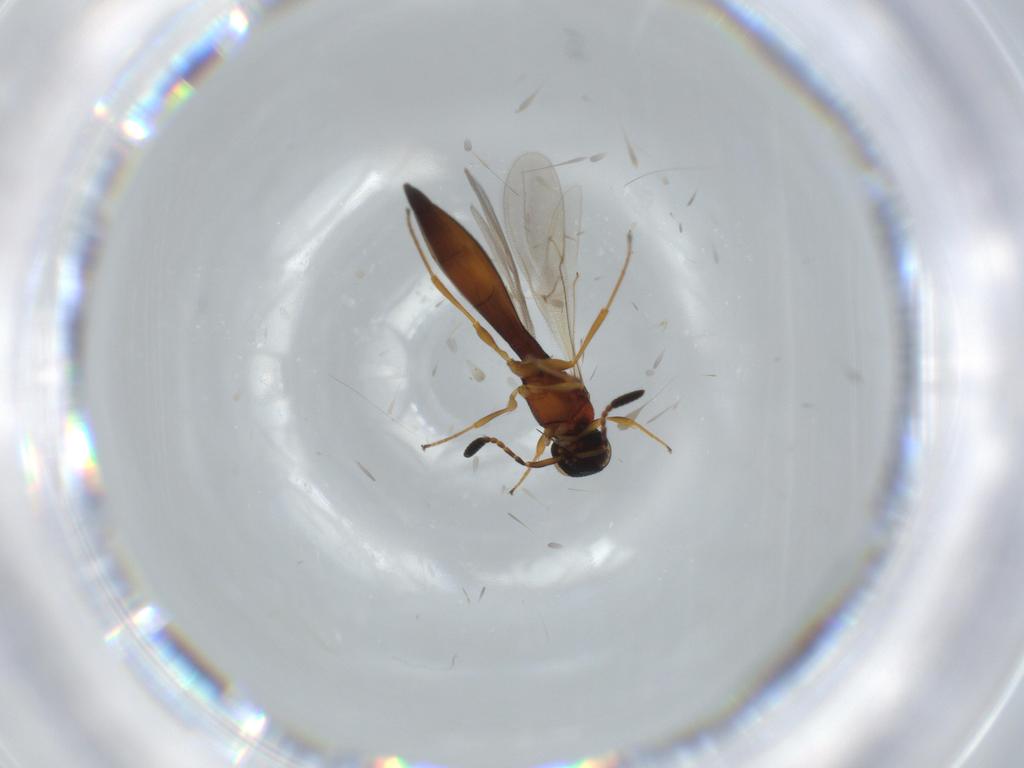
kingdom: Animalia
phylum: Arthropoda
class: Insecta
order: Hymenoptera
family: Scelionidae
